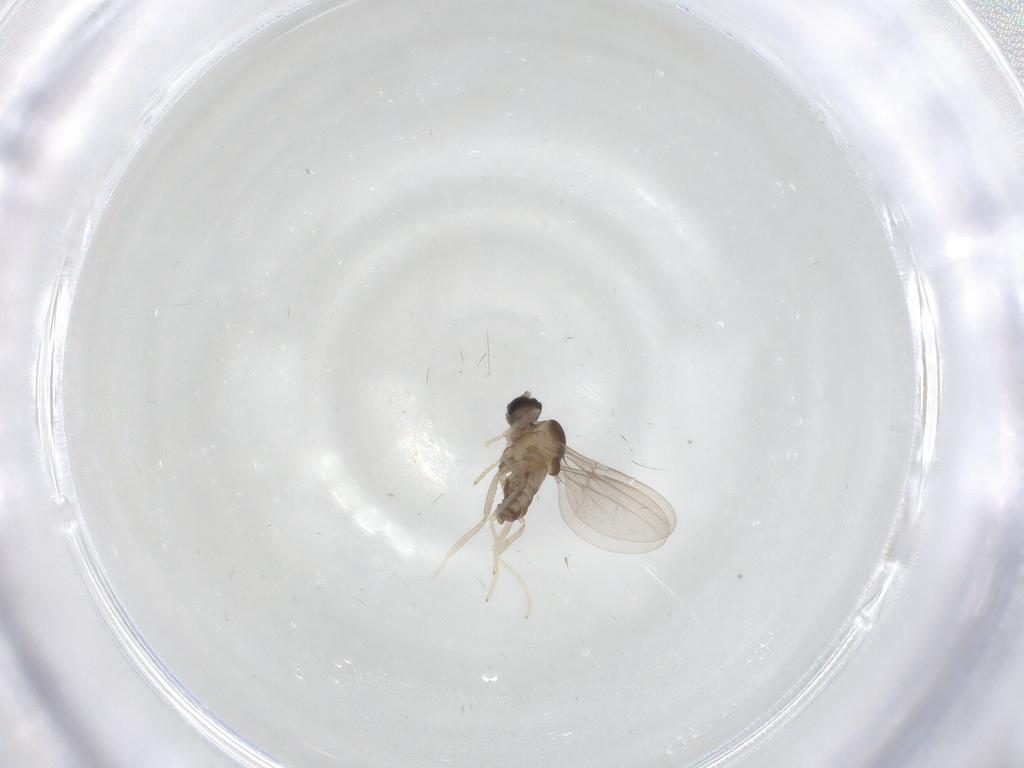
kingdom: Animalia
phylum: Arthropoda
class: Insecta
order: Diptera
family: Cecidomyiidae
